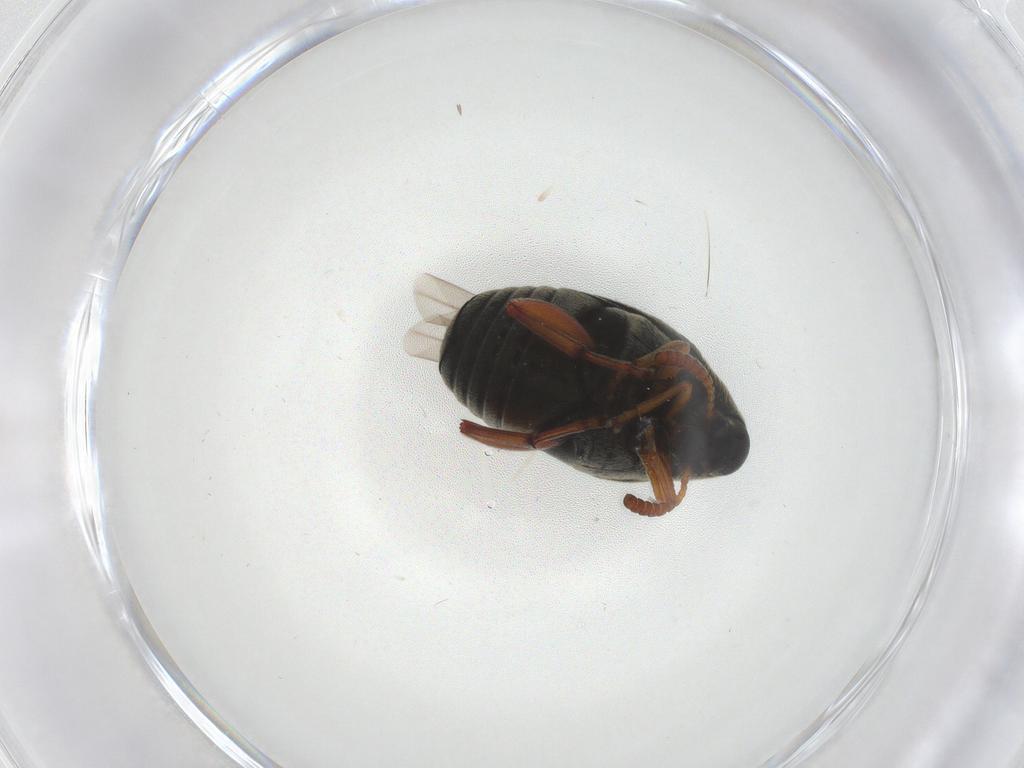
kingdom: Animalia
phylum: Arthropoda
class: Insecta
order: Coleoptera
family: Chrysomelidae
